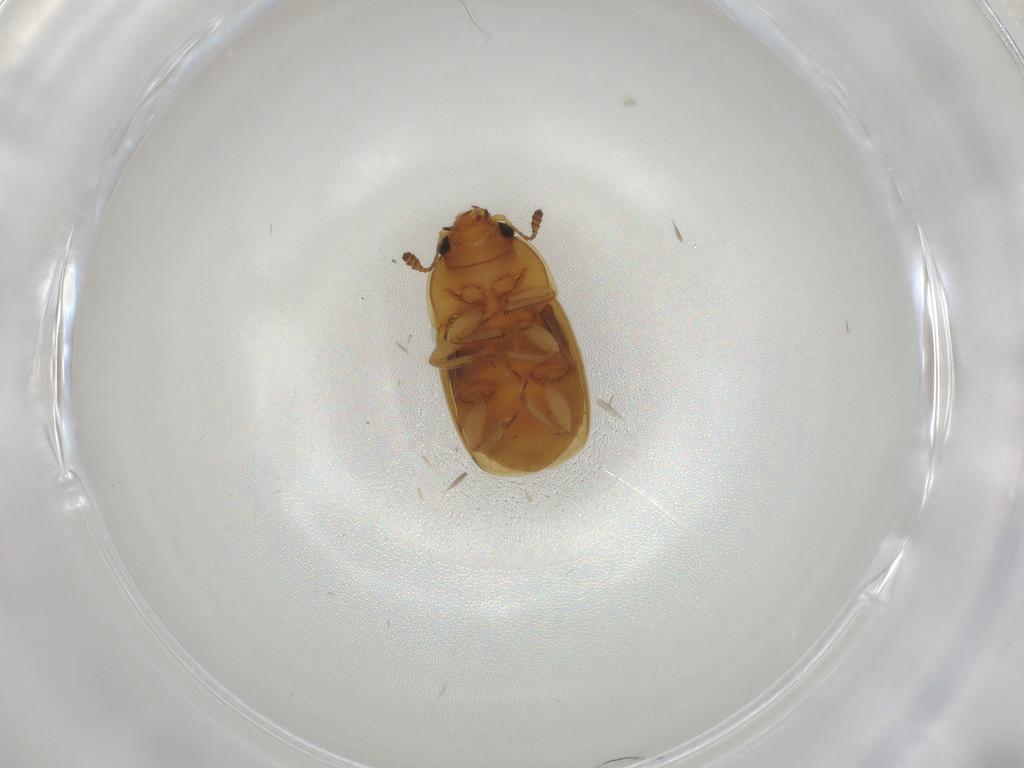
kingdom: Animalia
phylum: Arthropoda
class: Insecta
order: Coleoptera
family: Nitidulidae
